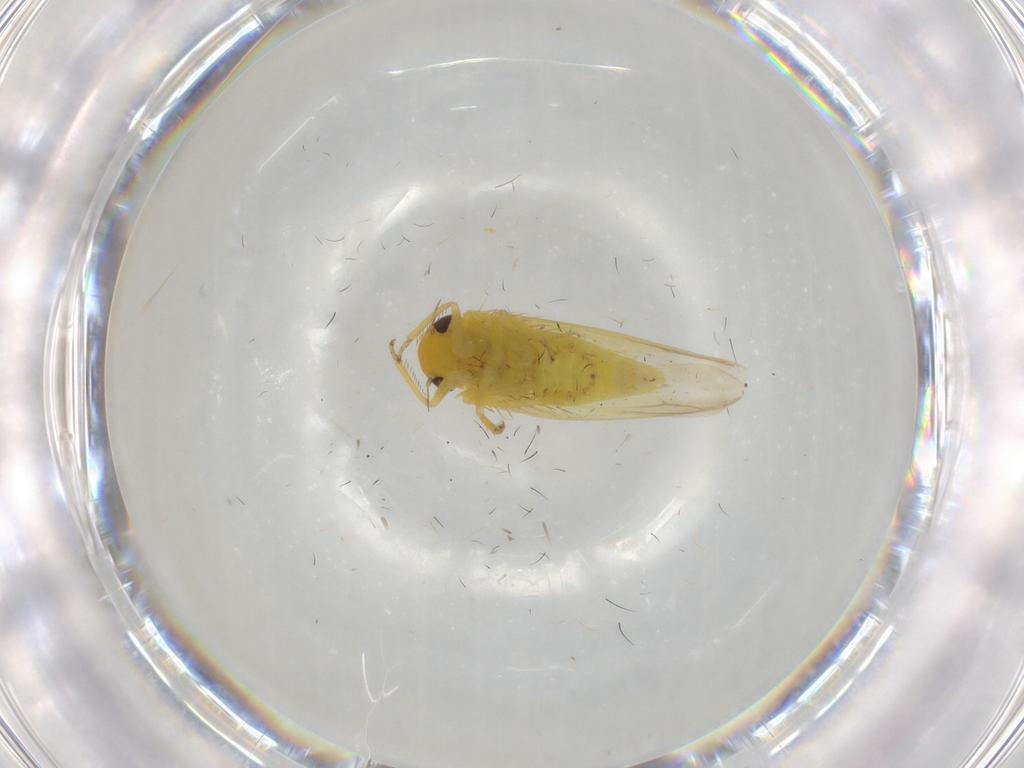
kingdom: Animalia
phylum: Arthropoda
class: Insecta
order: Hemiptera
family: Cicadellidae
